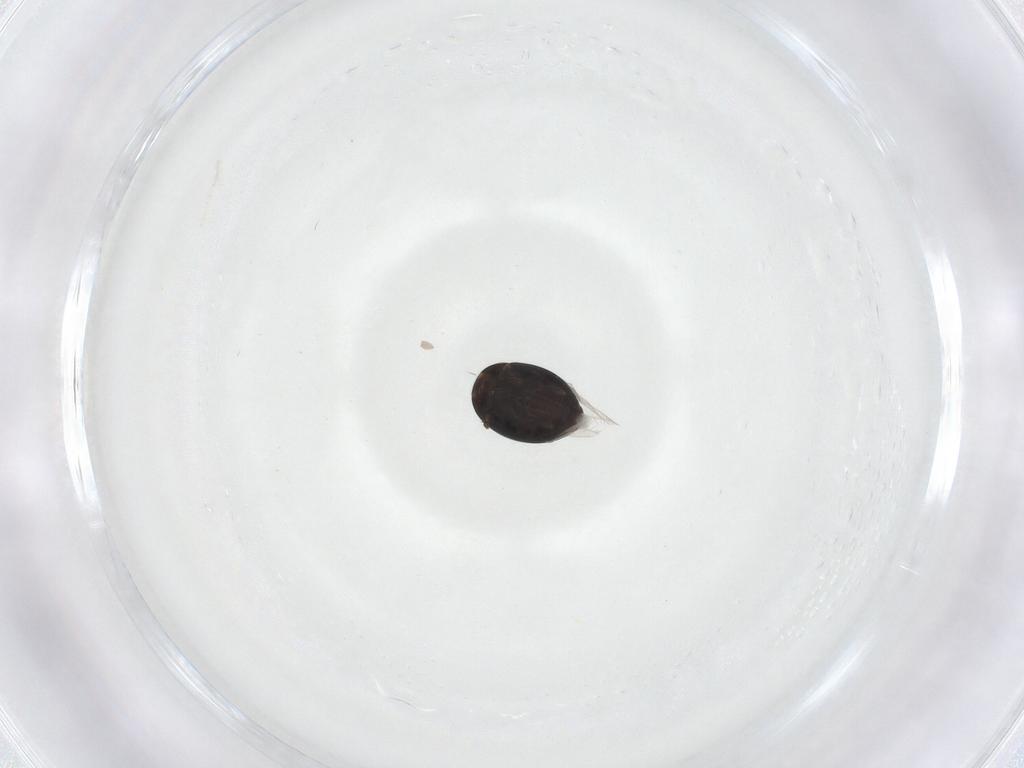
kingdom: Animalia
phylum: Arthropoda
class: Insecta
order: Coleoptera
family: Corylophidae
